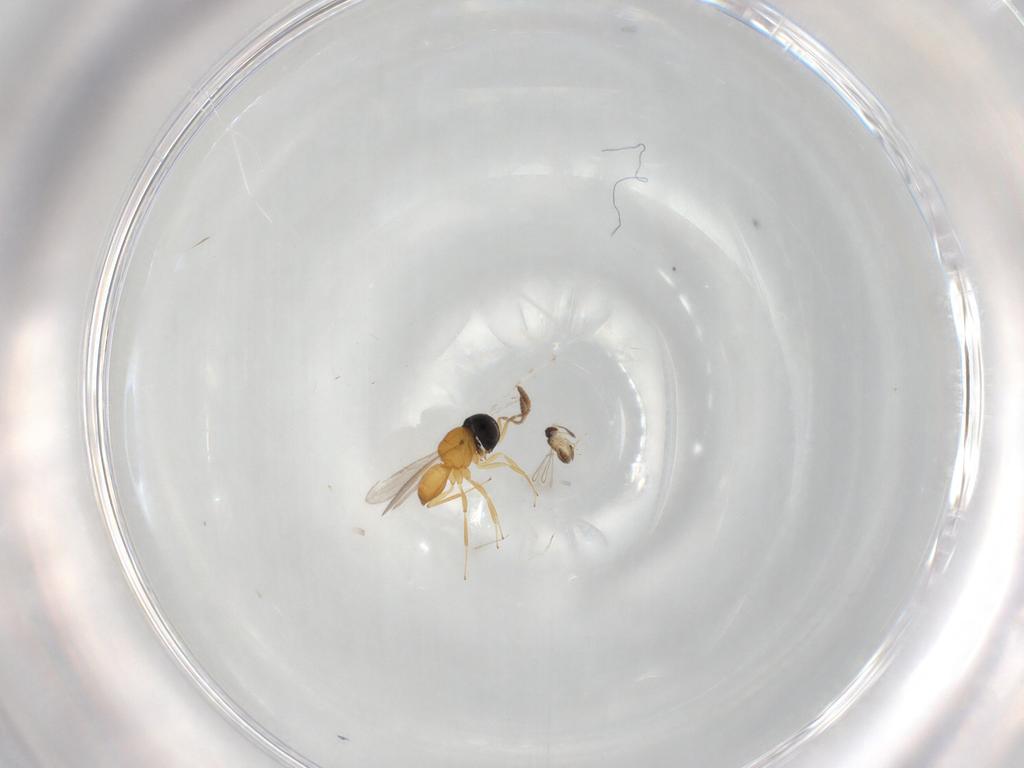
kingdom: Animalia
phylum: Arthropoda
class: Insecta
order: Hymenoptera
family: Scelionidae
